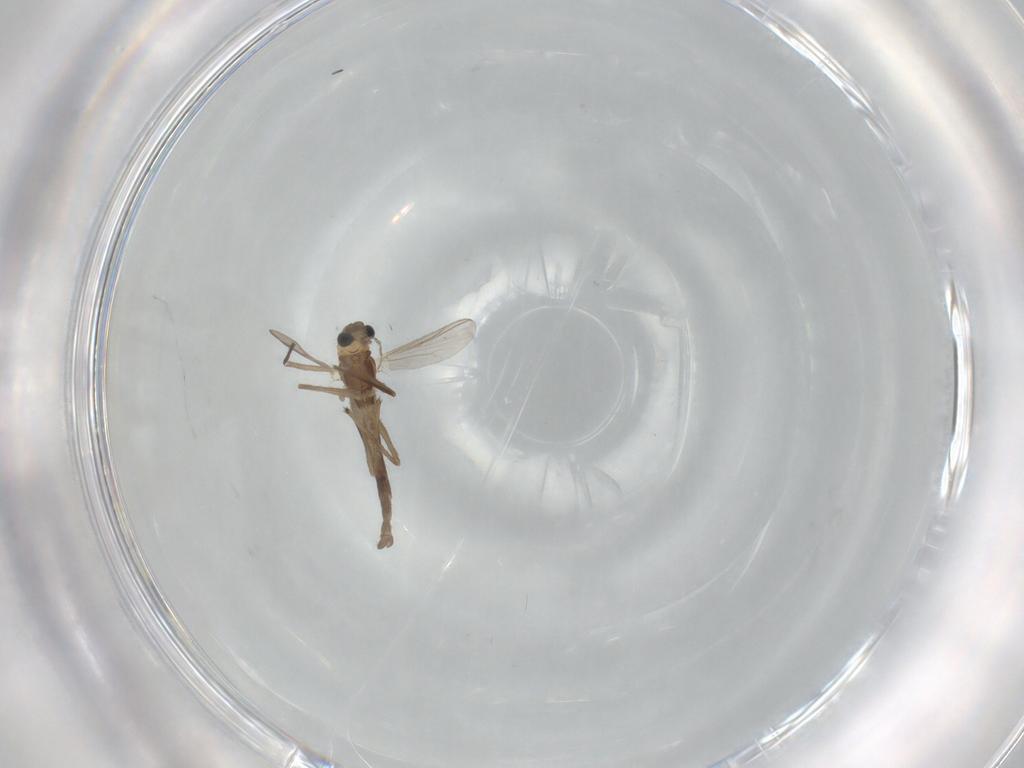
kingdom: Animalia
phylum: Arthropoda
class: Insecta
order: Diptera
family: Chironomidae
